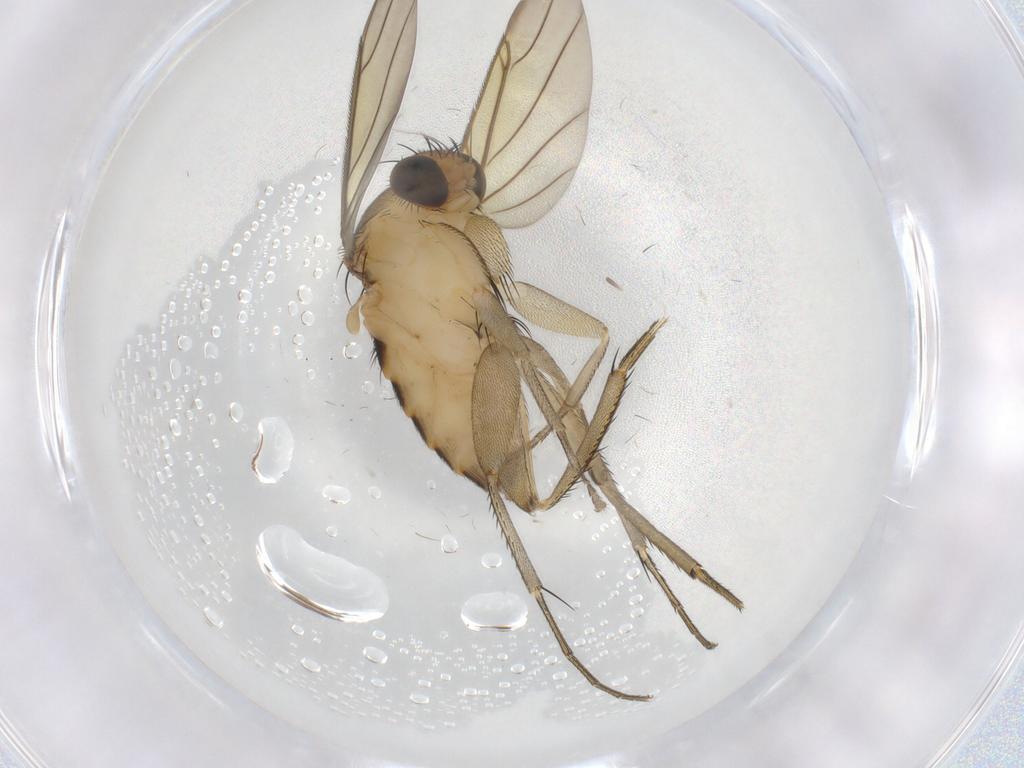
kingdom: Animalia
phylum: Arthropoda
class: Insecta
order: Diptera
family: Phoridae
